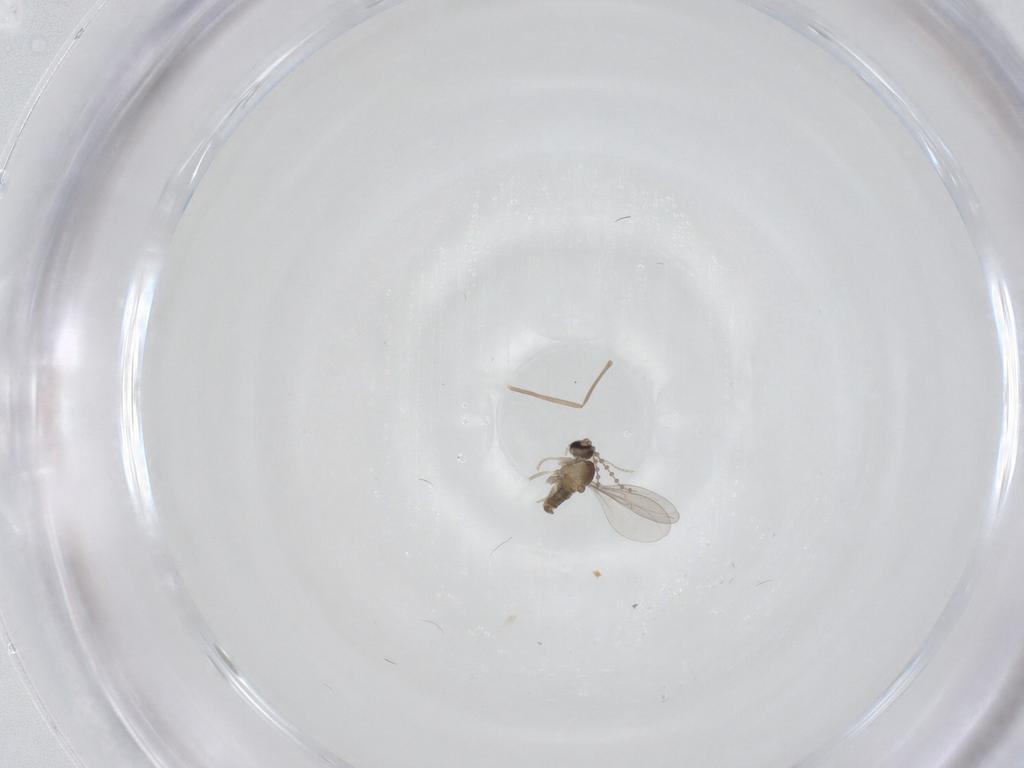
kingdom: Animalia
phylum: Arthropoda
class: Insecta
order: Diptera
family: Cecidomyiidae
